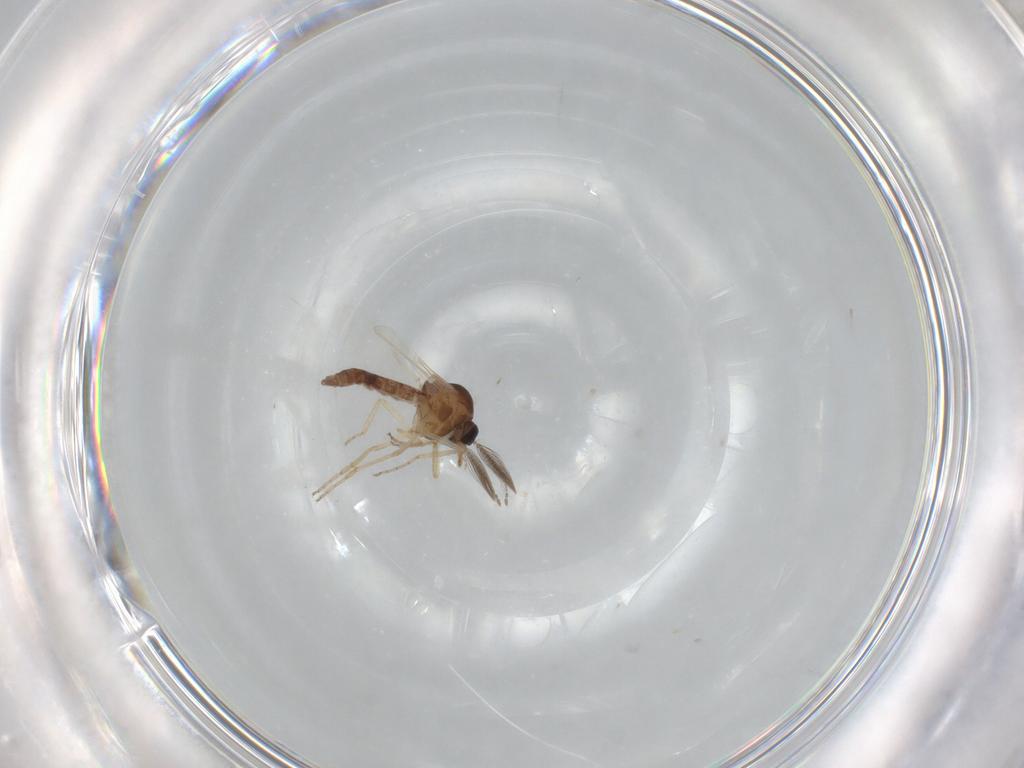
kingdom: Animalia
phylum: Arthropoda
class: Insecta
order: Diptera
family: Ceratopogonidae
